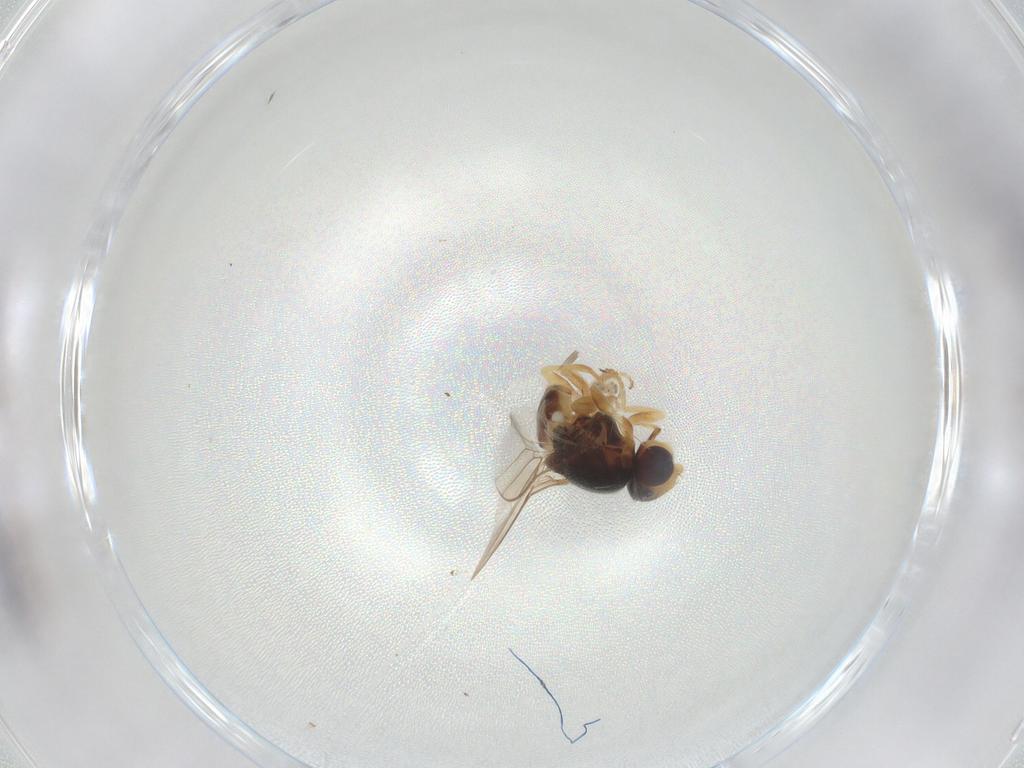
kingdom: Animalia
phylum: Arthropoda
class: Insecta
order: Diptera
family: Chloropidae
